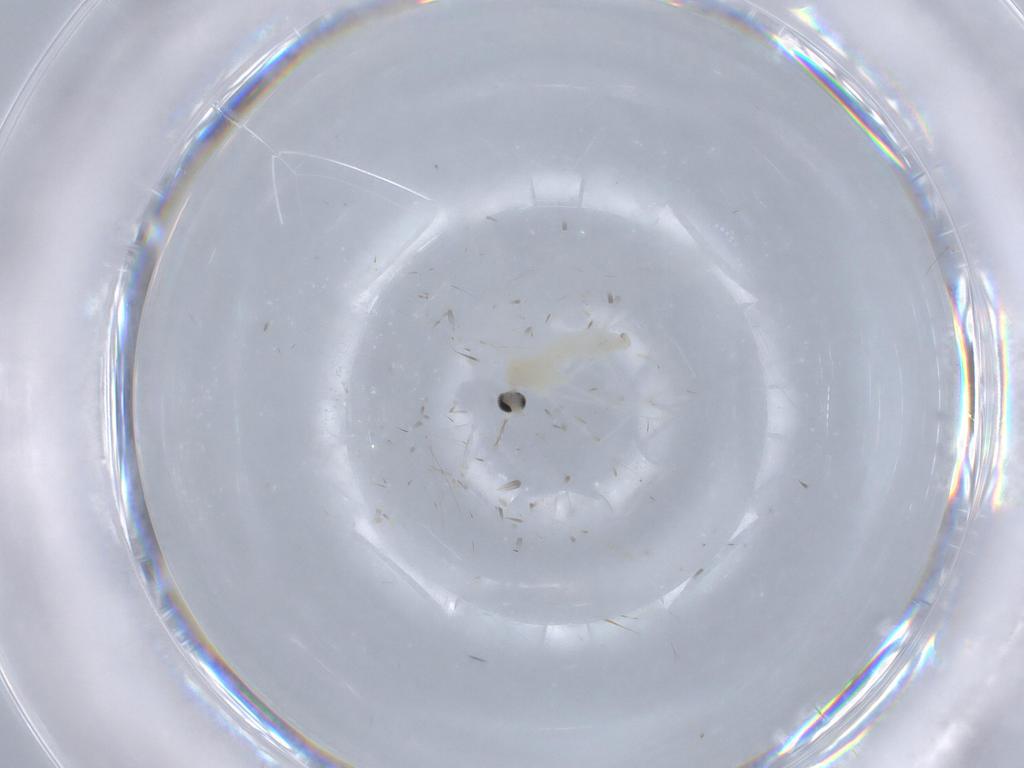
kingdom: Animalia
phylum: Arthropoda
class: Insecta
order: Diptera
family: Cecidomyiidae
